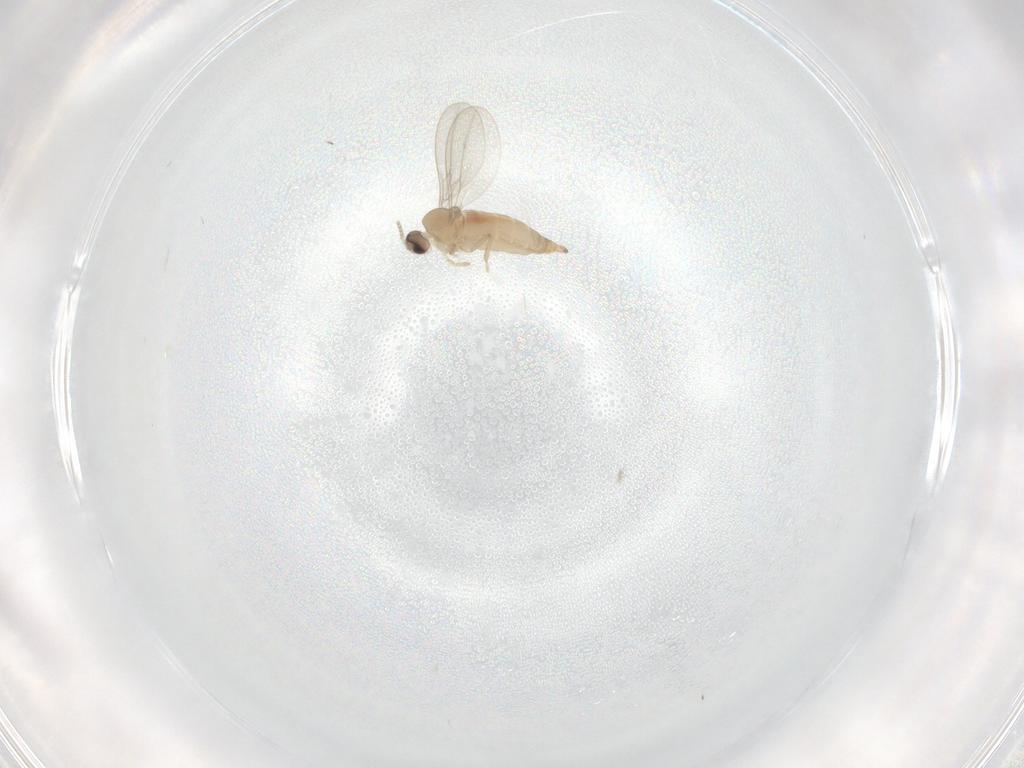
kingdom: Animalia
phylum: Arthropoda
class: Insecta
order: Diptera
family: Cecidomyiidae
